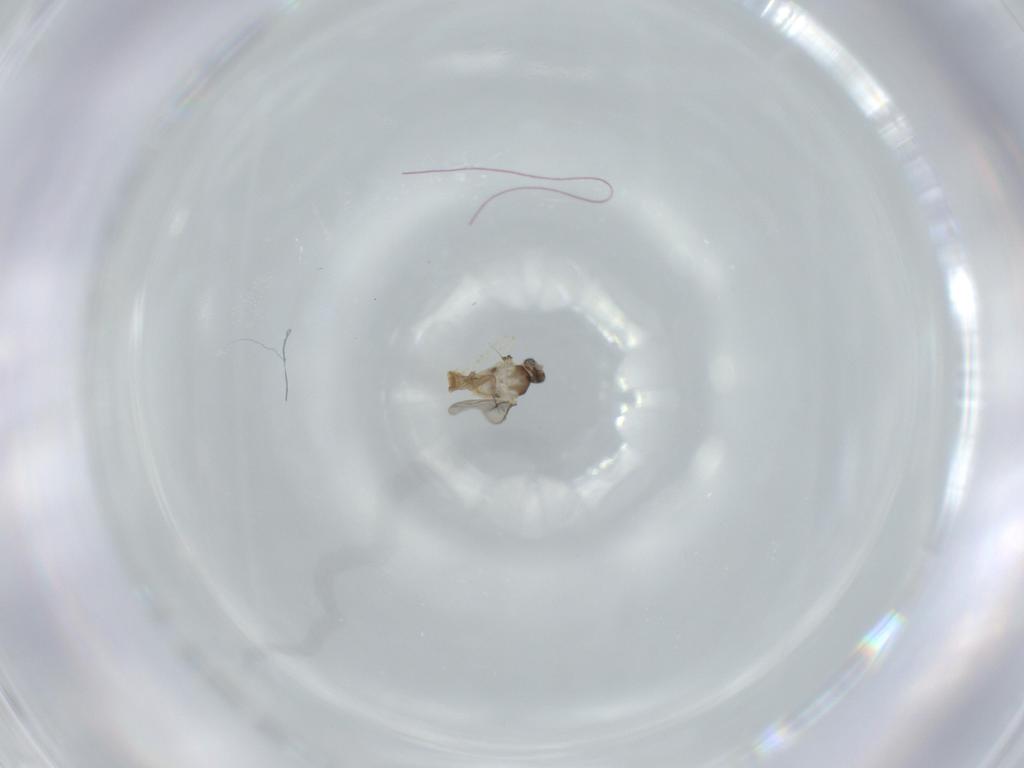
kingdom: Animalia
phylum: Arthropoda
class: Insecta
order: Diptera
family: Cecidomyiidae
